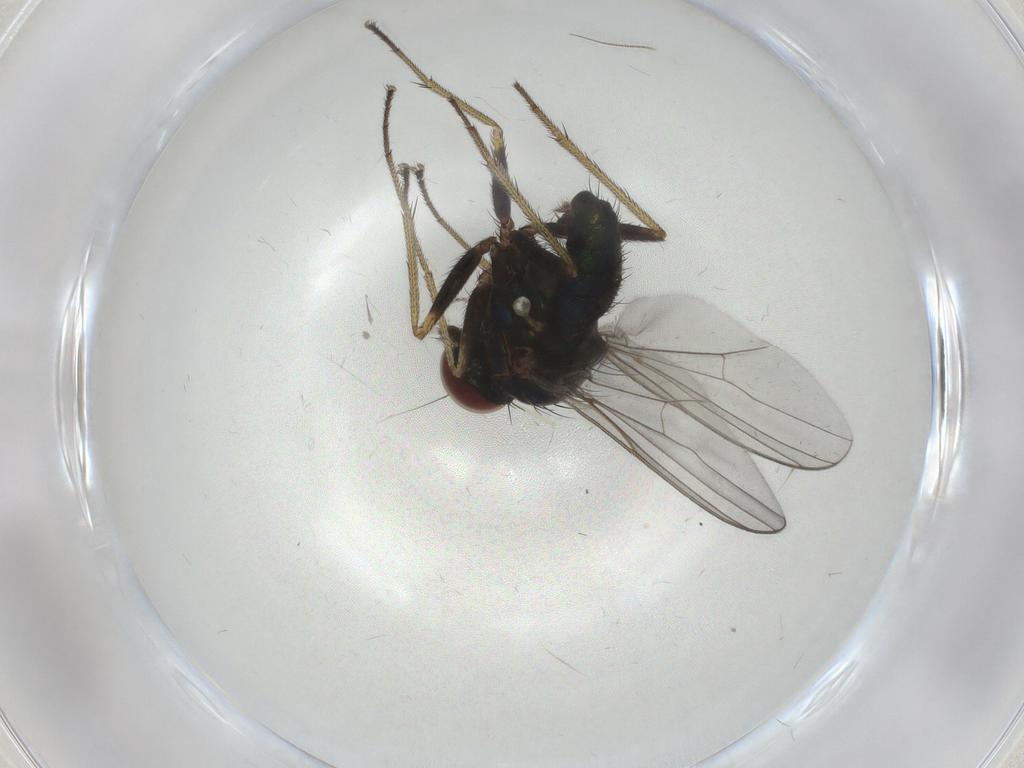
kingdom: Animalia
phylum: Arthropoda
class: Insecta
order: Diptera
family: Dolichopodidae
